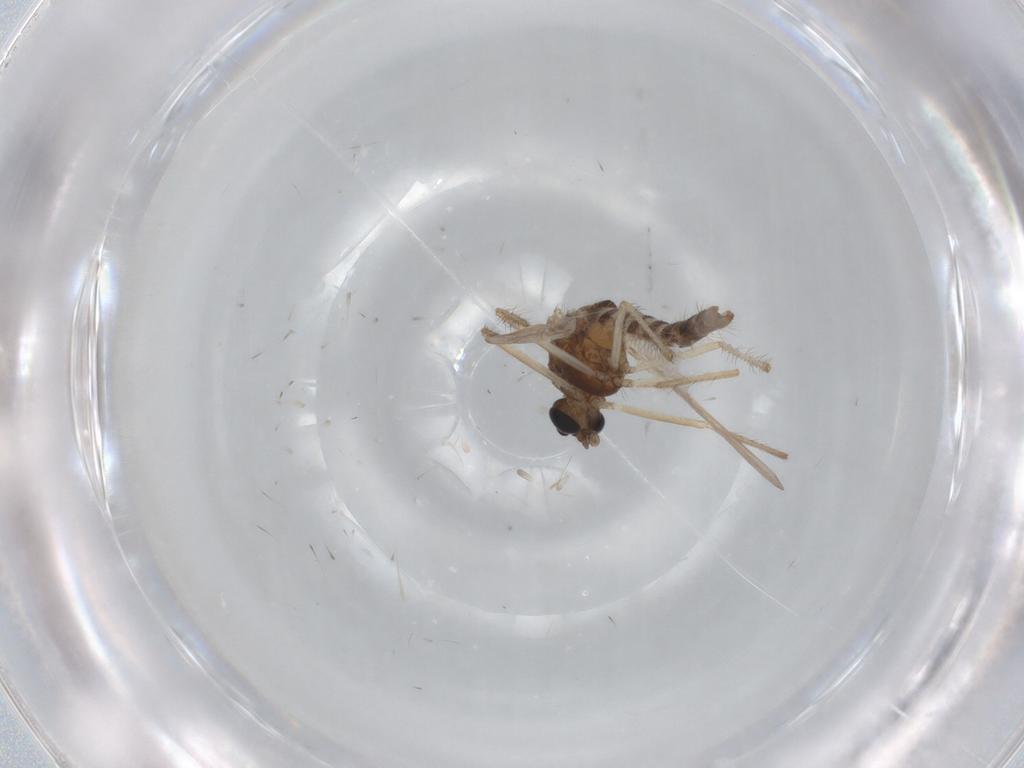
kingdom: Animalia
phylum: Arthropoda
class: Insecta
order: Diptera
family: Chironomidae
